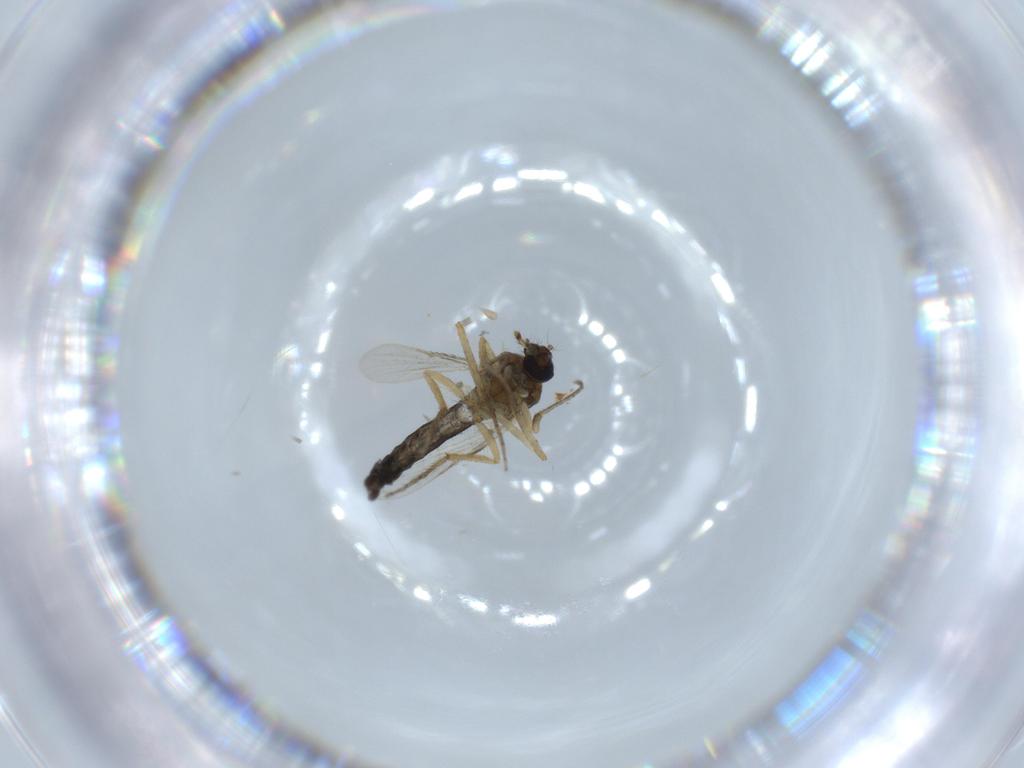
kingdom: Animalia
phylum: Arthropoda
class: Insecta
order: Diptera
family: Ceratopogonidae
